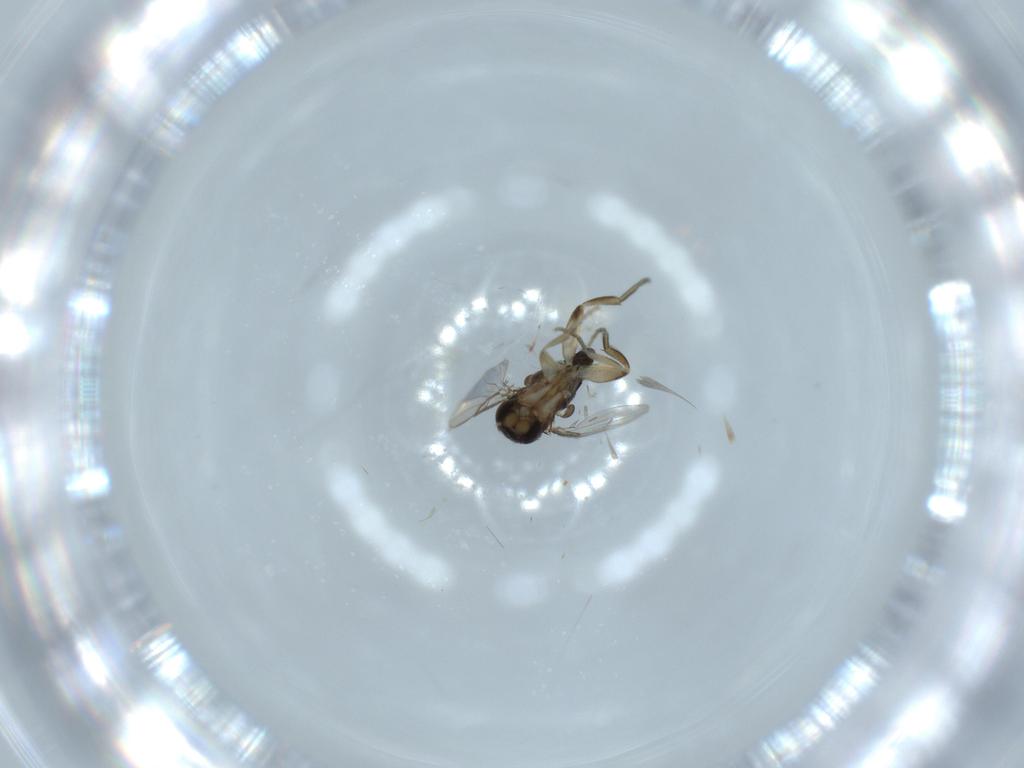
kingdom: Animalia
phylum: Arthropoda
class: Insecta
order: Diptera
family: Phoridae
